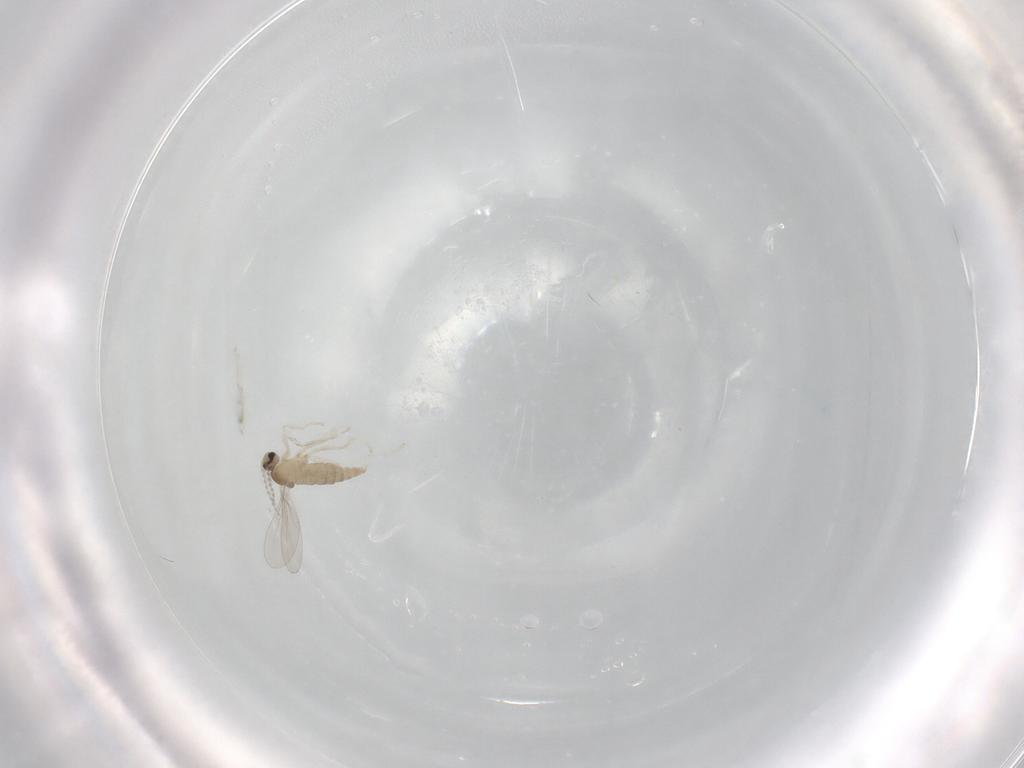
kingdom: Animalia
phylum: Arthropoda
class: Insecta
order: Diptera
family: Cecidomyiidae
